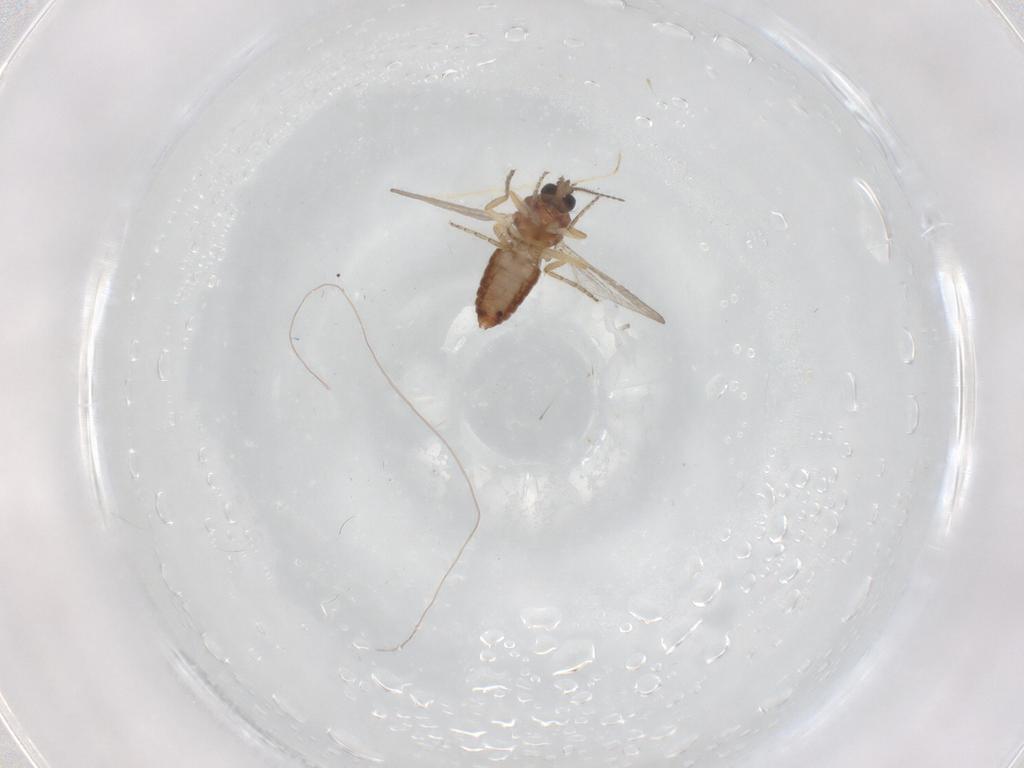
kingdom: Animalia
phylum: Arthropoda
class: Insecta
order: Diptera
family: Ceratopogonidae
